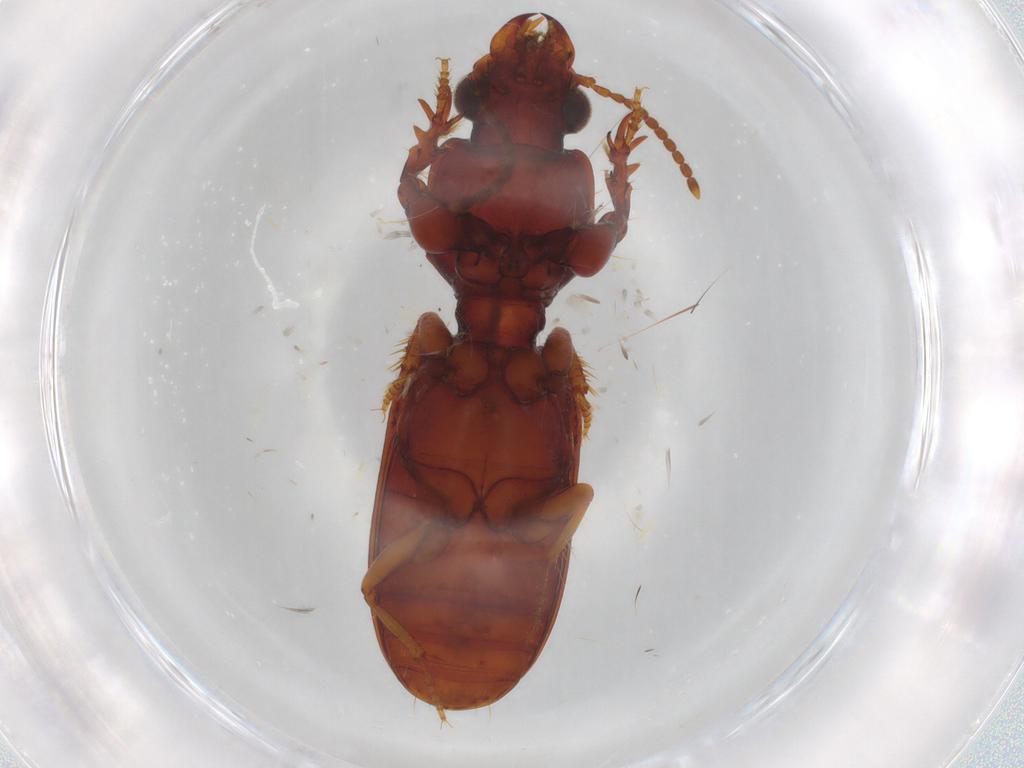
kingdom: Animalia
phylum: Arthropoda
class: Insecta
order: Coleoptera
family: Carabidae
